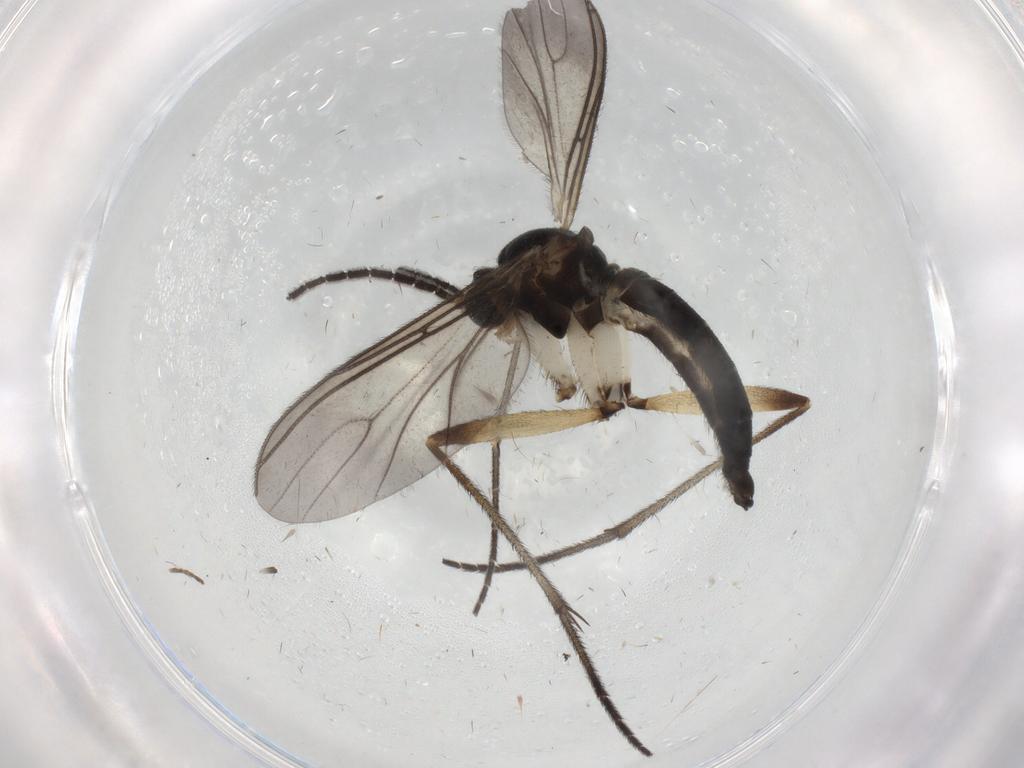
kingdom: Animalia
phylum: Arthropoda
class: Insecta
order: Diptera
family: Sciaridae
